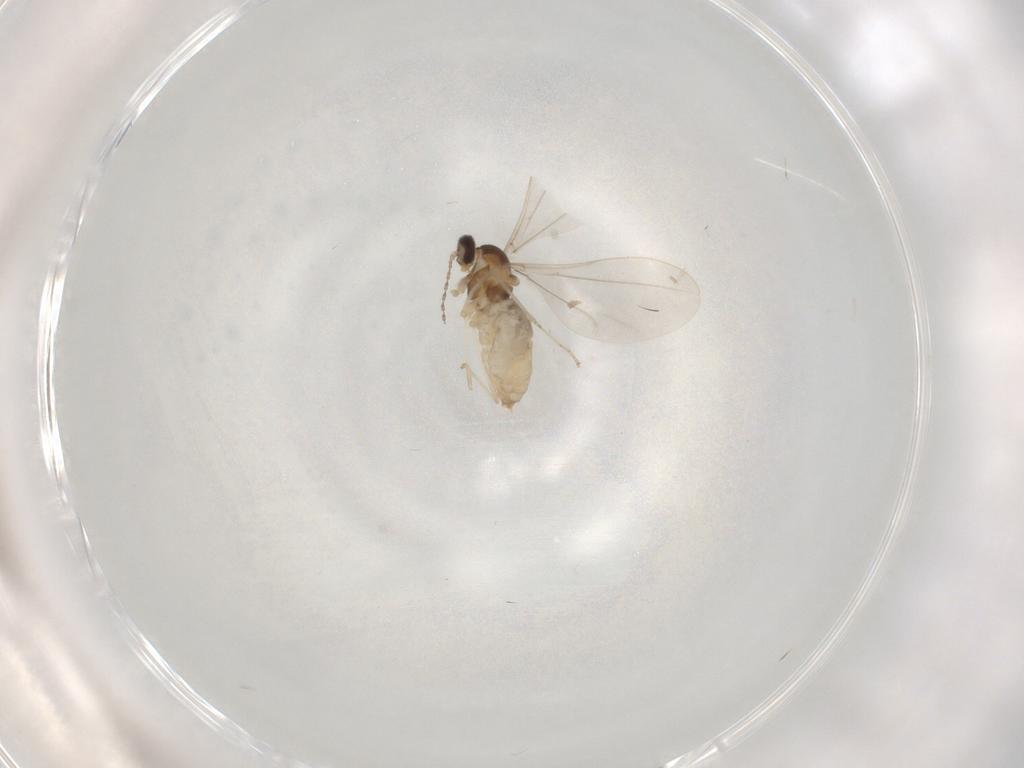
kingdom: Animalia
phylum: Arthropoda
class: Insecta
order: Diptera
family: Cecidomyiidae
